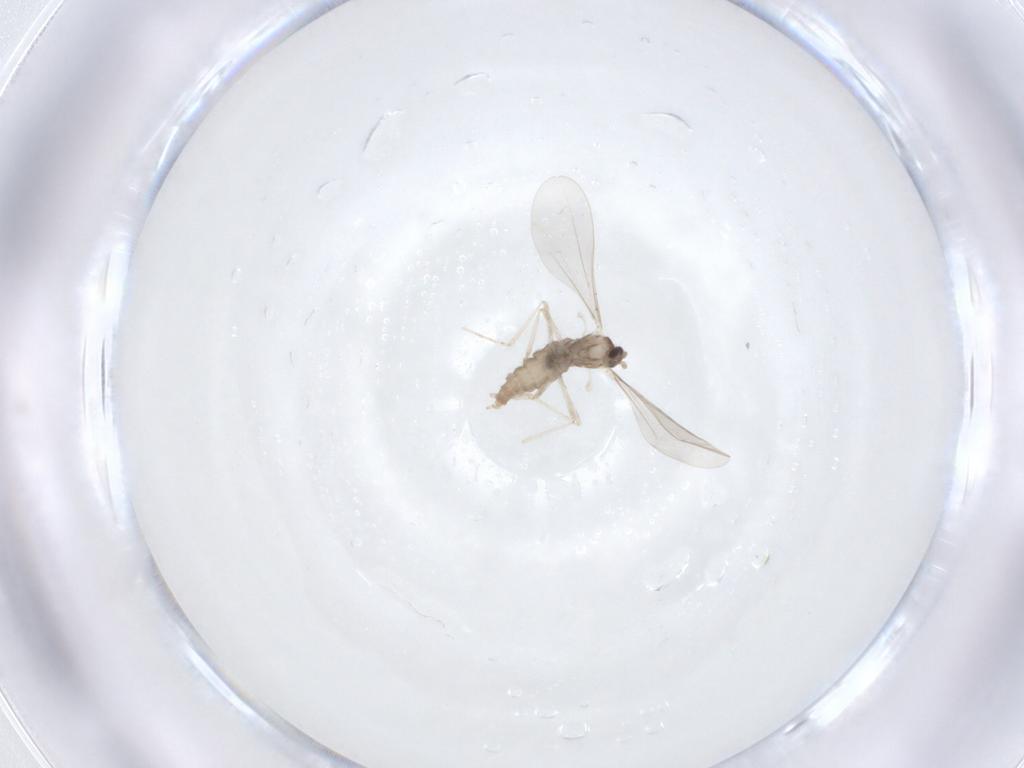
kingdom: Animalia
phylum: Arthropoda
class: Insecta
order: Diptera
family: Cecidomyiidae
